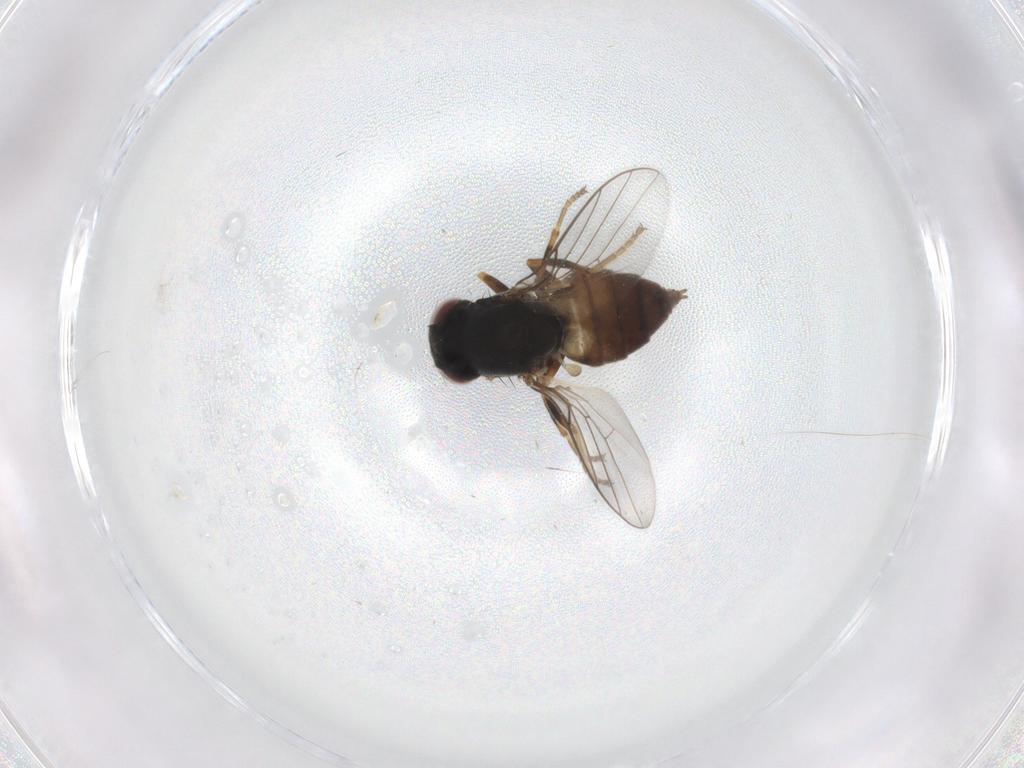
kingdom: Animalia
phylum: Arthropoda
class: Insecta
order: Diptera
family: Chloropidae
